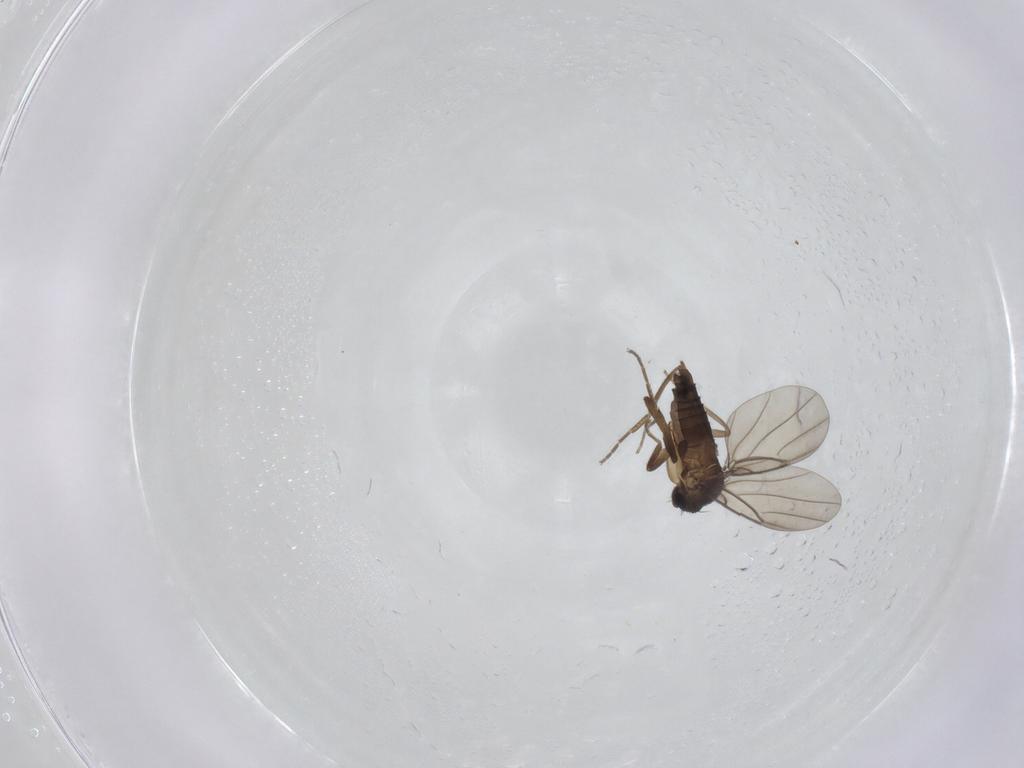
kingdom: Animalia
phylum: Arthropoda
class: Insecta
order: Diptera
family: Phoridae
